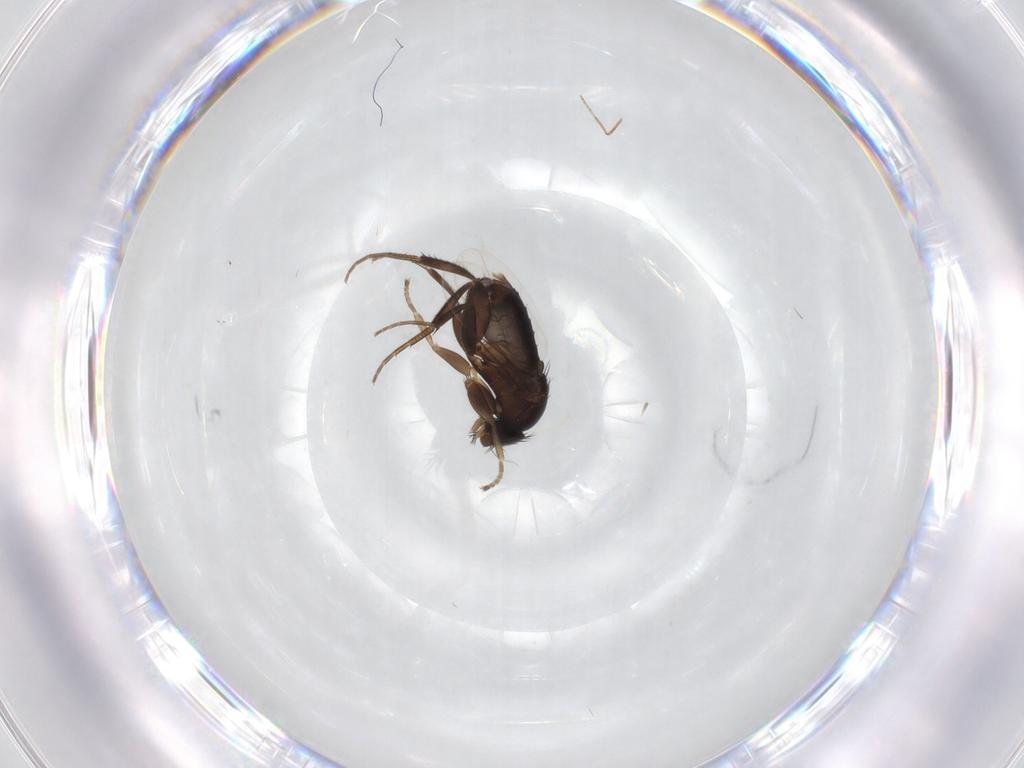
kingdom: Animalia
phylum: Arthropoda
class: Insecta
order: Diptera
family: Phoridae
